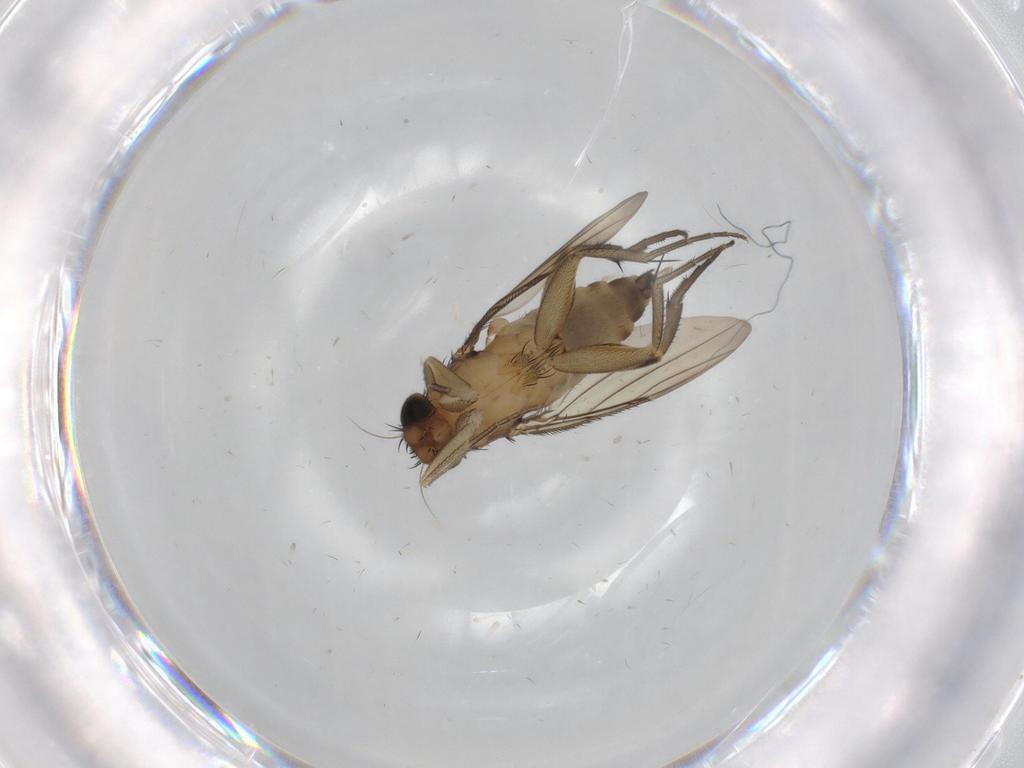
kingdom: Animalia
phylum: Arthropoda
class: Insecta
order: Diptera
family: Phoridae
